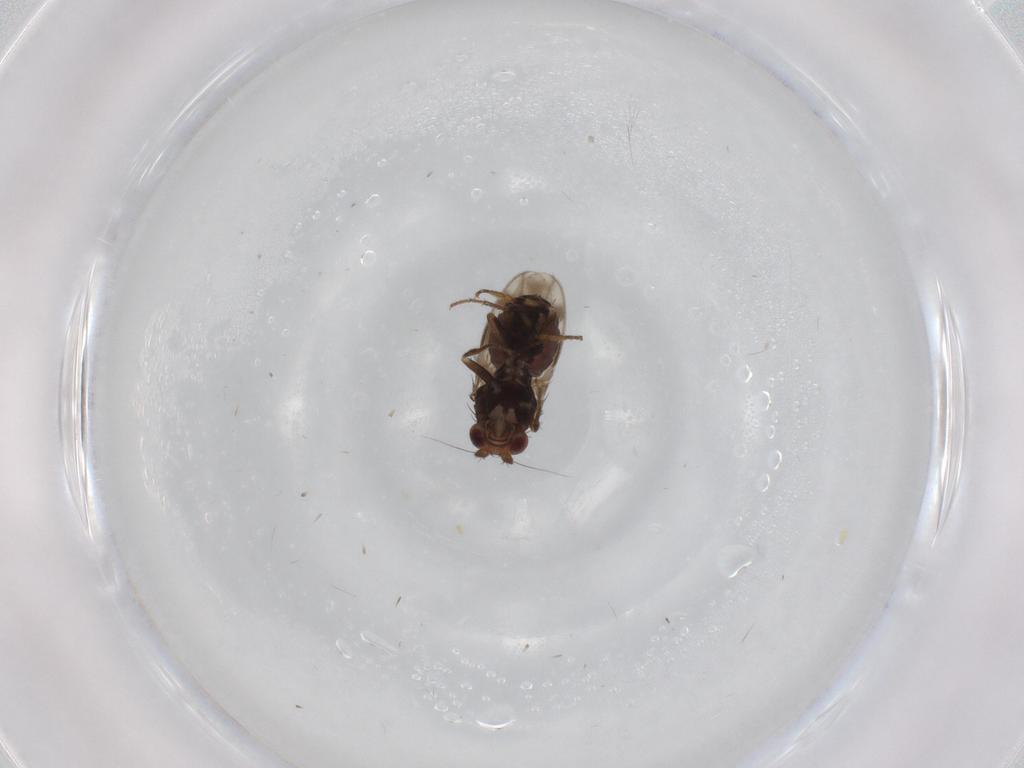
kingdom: Animalia
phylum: Arthropoda
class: Insecta
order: Diptera
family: Sphaeroceridae
